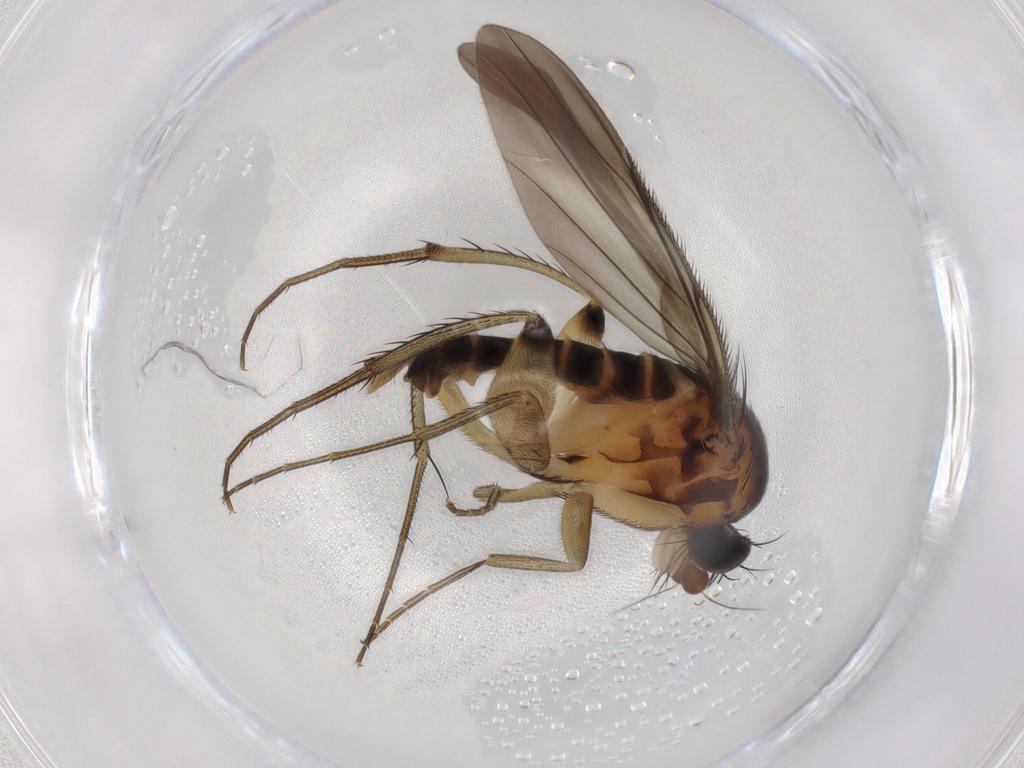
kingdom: Animalia
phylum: Arthropoda
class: Insecta
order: Diptera
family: Phoridae
